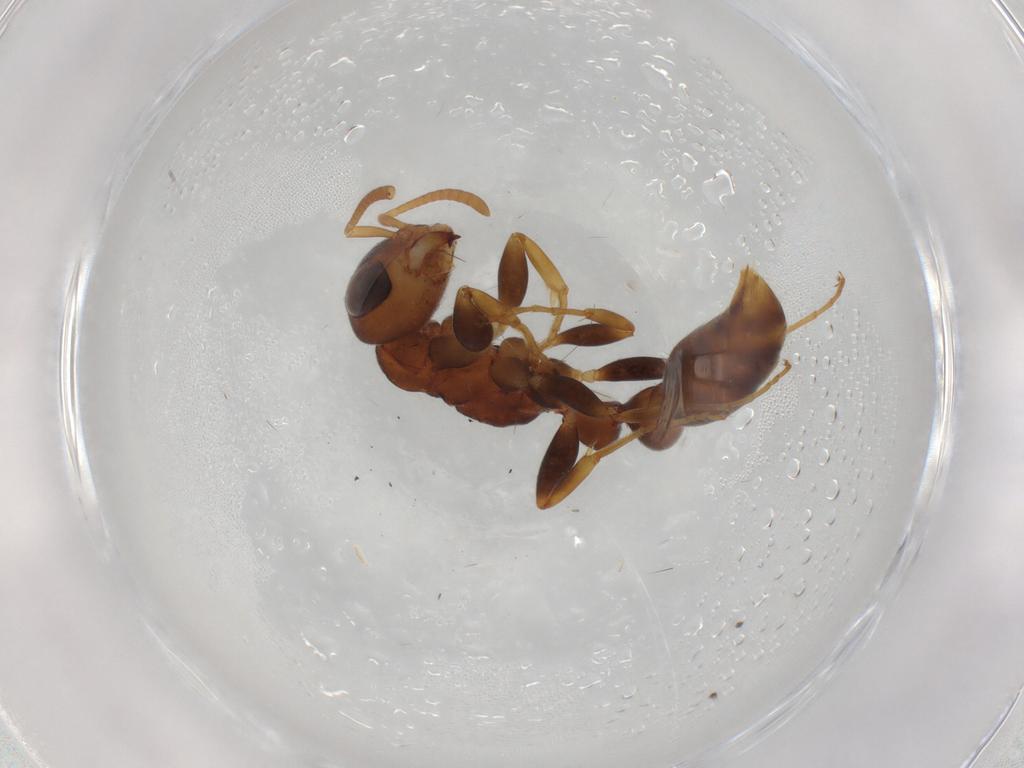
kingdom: Animalia
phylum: Arthropoda
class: Insecta
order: Hymenoptera
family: Formicidae
